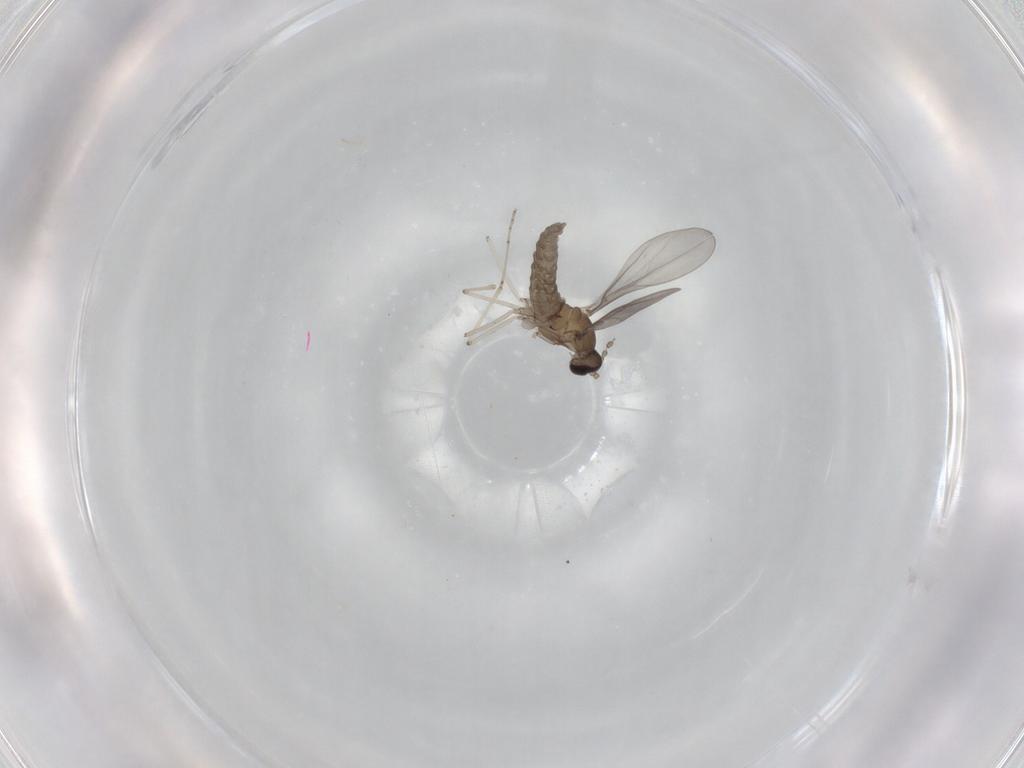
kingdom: Animalia
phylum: Arthropoda
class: Insecta
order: Diptera
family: Cecidomyiidae
